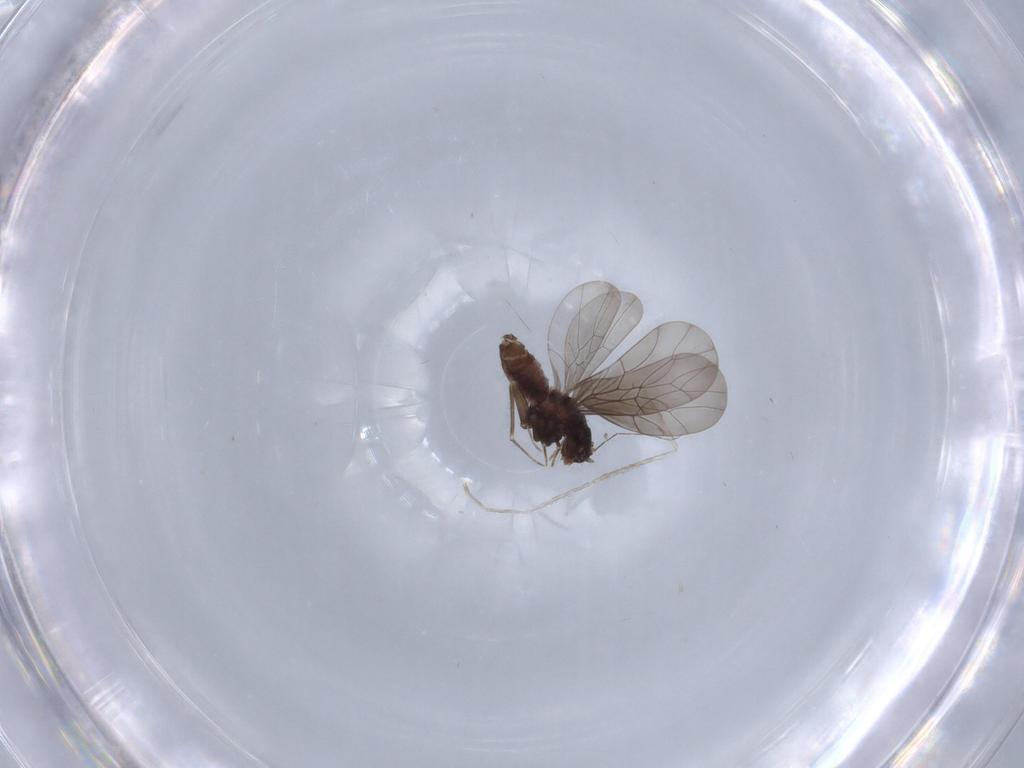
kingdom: Animalia
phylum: Arthropoda
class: Insecta
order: Psocodea
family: Lepidopsocidae
